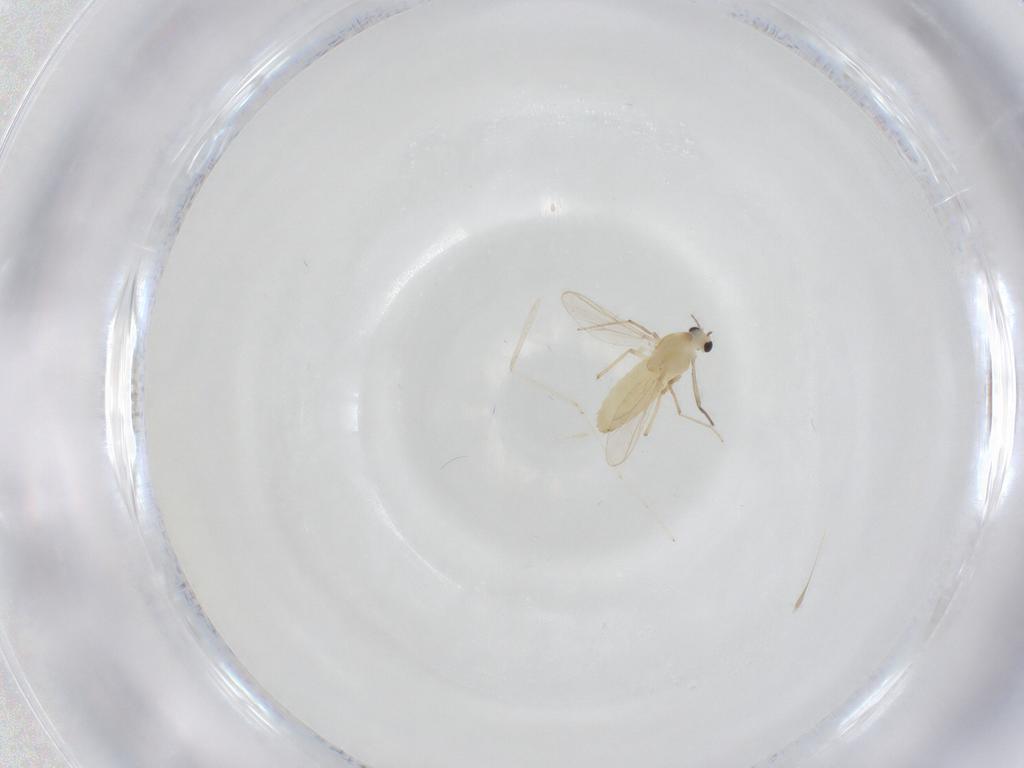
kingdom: Animalia
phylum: Arthropoda
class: Insecta
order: Diptera
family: Chironomidae
